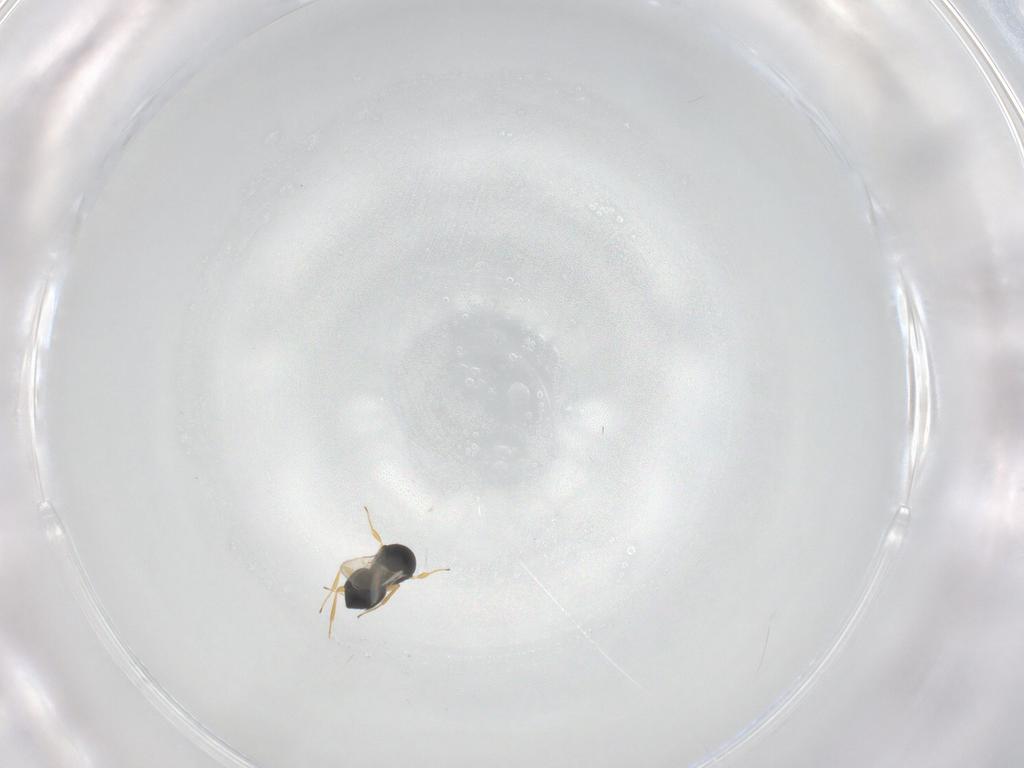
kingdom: Animalia
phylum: Arthropoda
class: Insecta
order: Hymenoptera
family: Scelionidae
